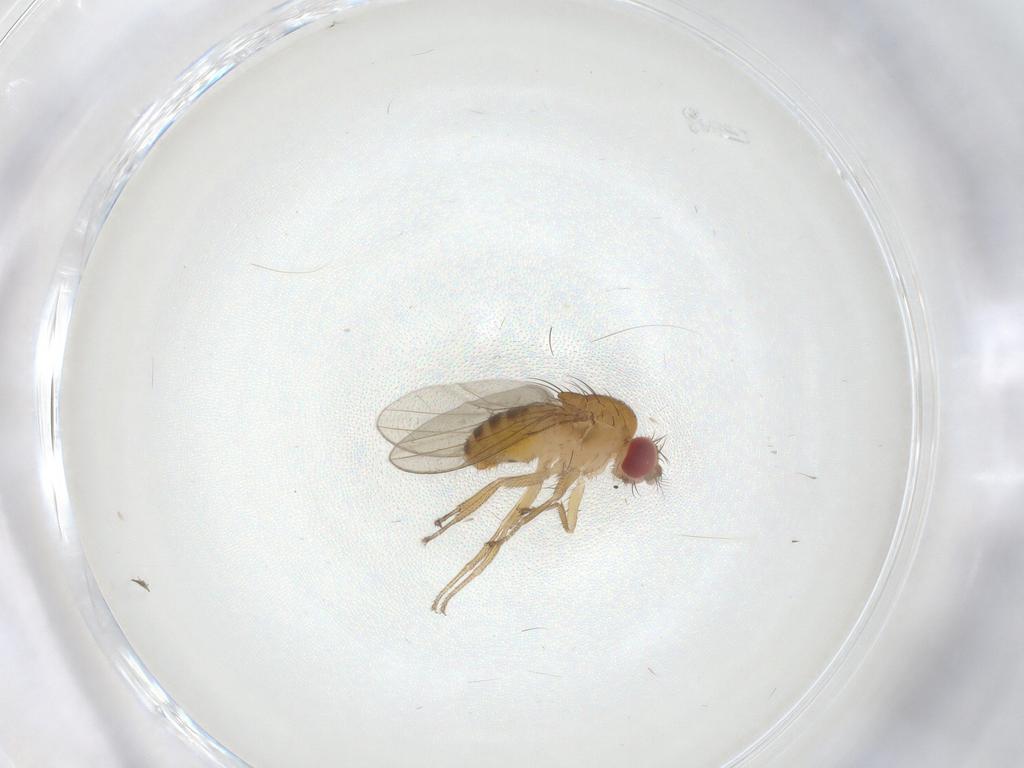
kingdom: Animalia
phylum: Arthropoda
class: Insecta
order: Diptera
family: Drosophilidae
